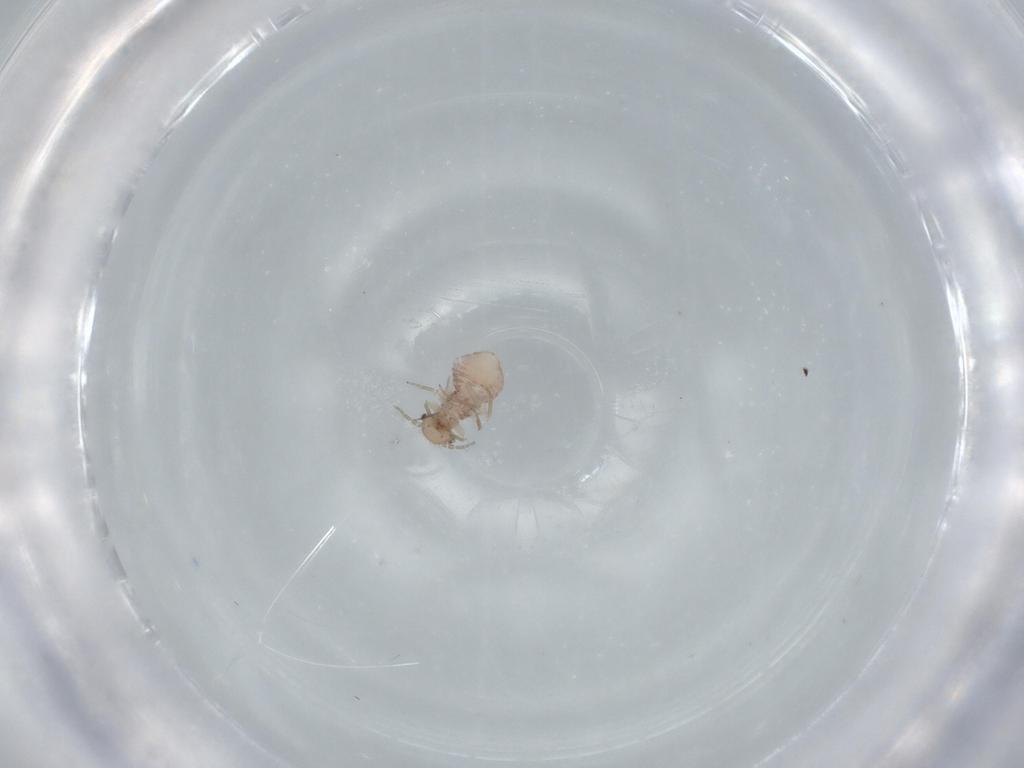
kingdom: Animalia
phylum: Arthropoda
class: Insecta
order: Psocodea
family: Ectopsocidae
